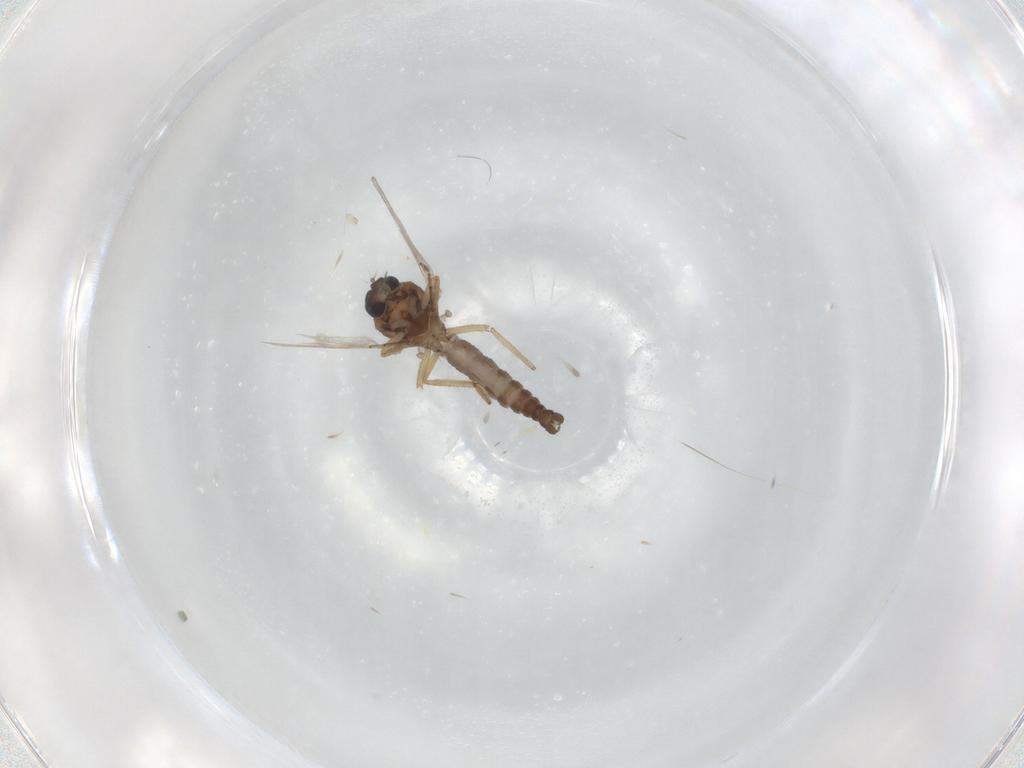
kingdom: Animalia
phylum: Arthropoda
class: Insecta
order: Diptera
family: Ceratopogonidae
